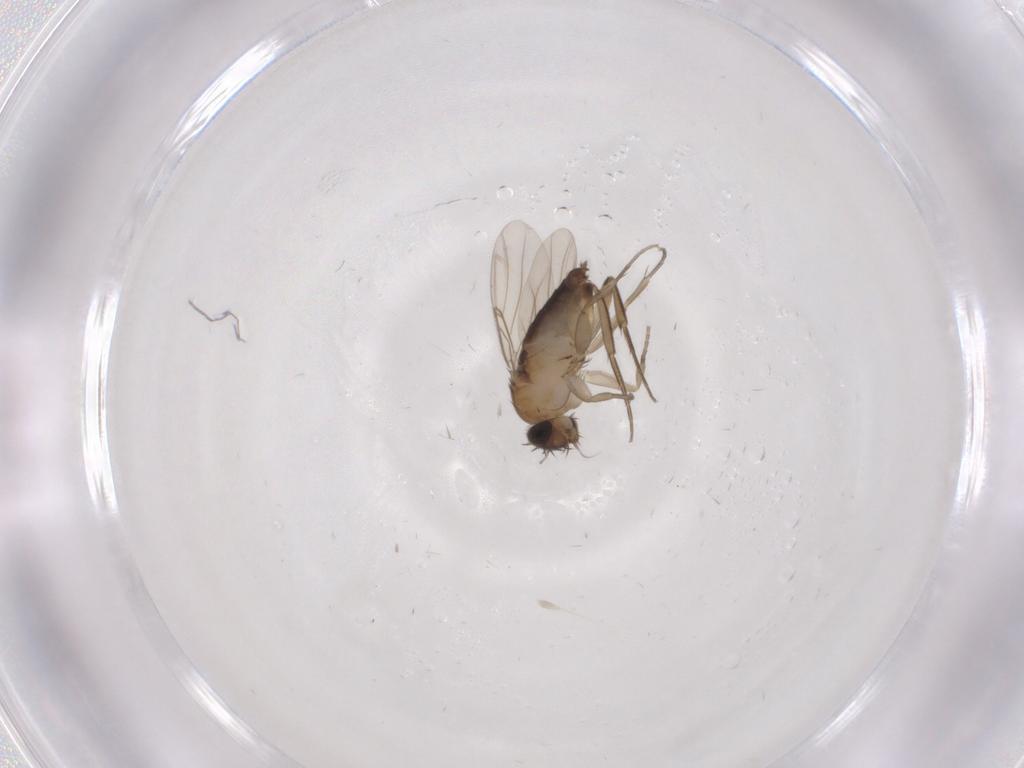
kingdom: Animalia
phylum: Arthropoda
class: Insecta
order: Diptera
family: Phoridae
